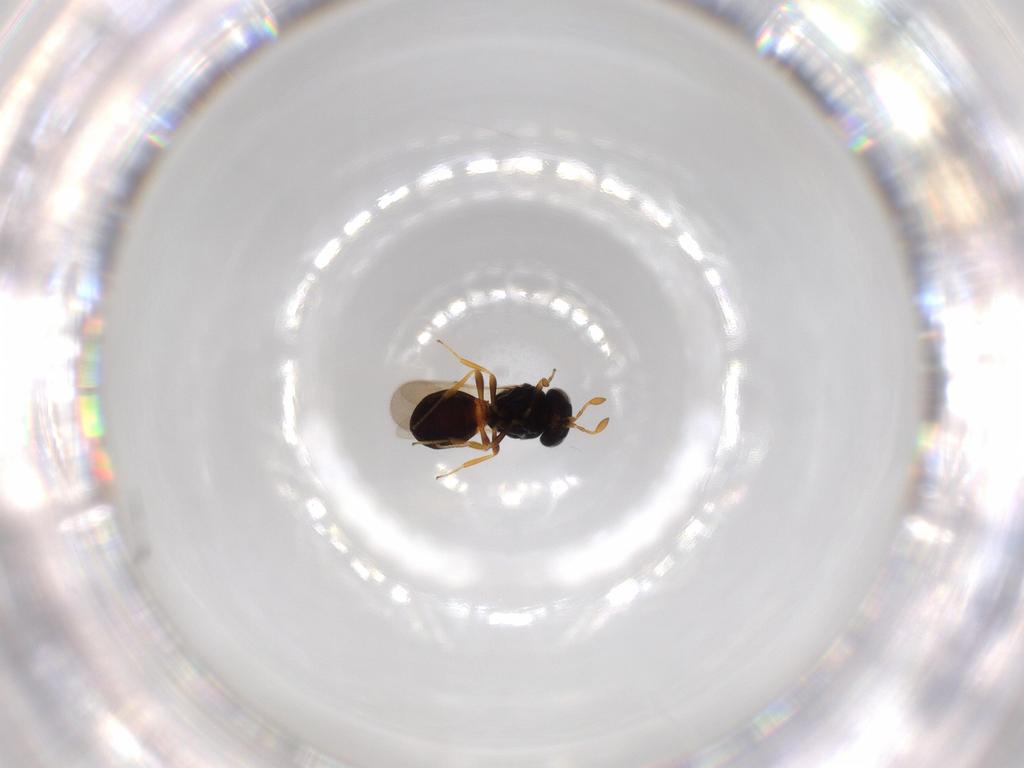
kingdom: Animalia
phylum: Arthropoda
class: Insecta
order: Hymenoptera
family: Scelionidae
